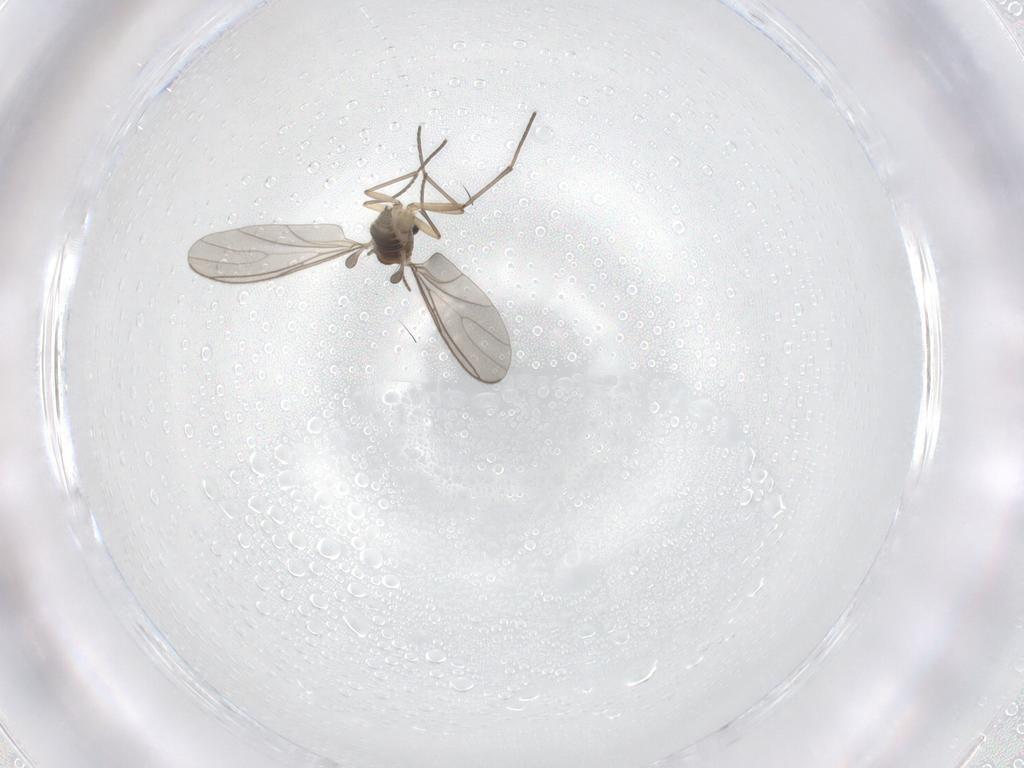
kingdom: Animalia
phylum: Arthropoda
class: Insecta
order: Diptera
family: Sciaridae
